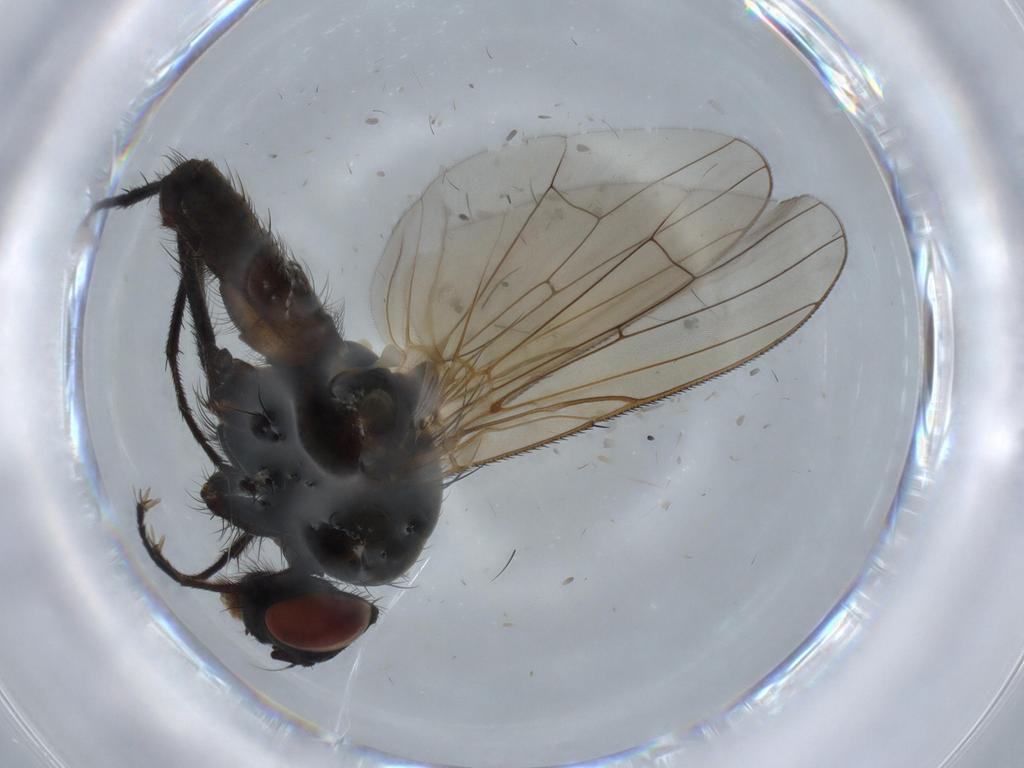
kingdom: Animalia
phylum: Arthropoda
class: Insecta
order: Diptera
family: Anthomyiidae
